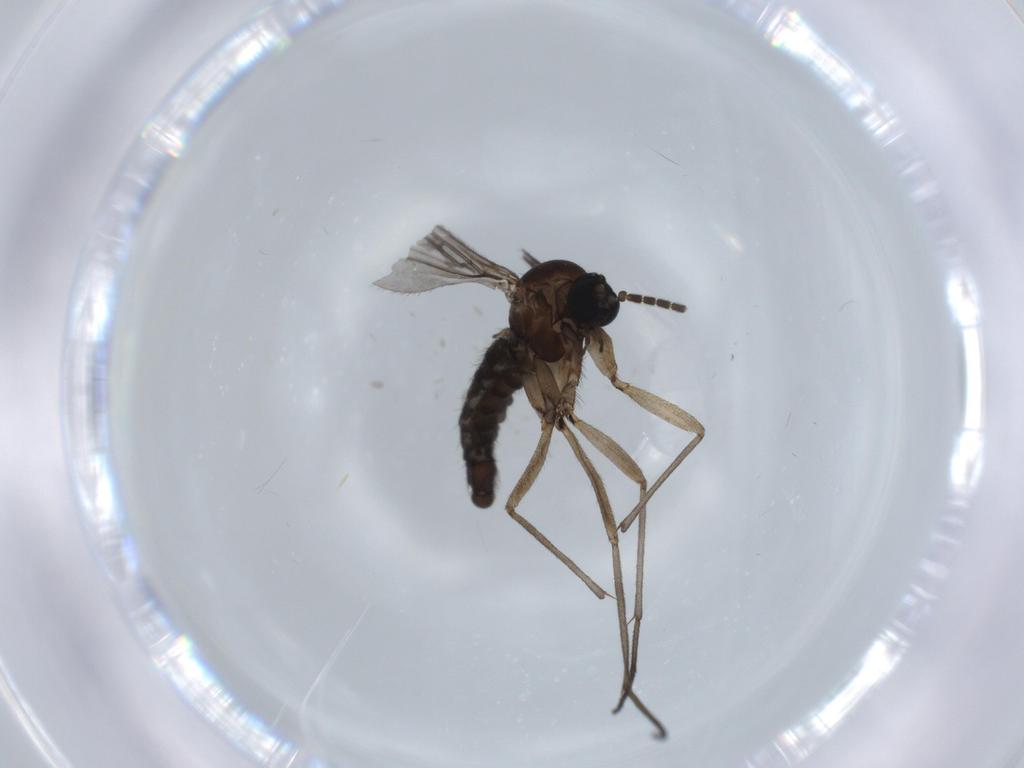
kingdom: Animalia
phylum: Arthropoda
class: Insecta
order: Diptera
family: Sciaridae
